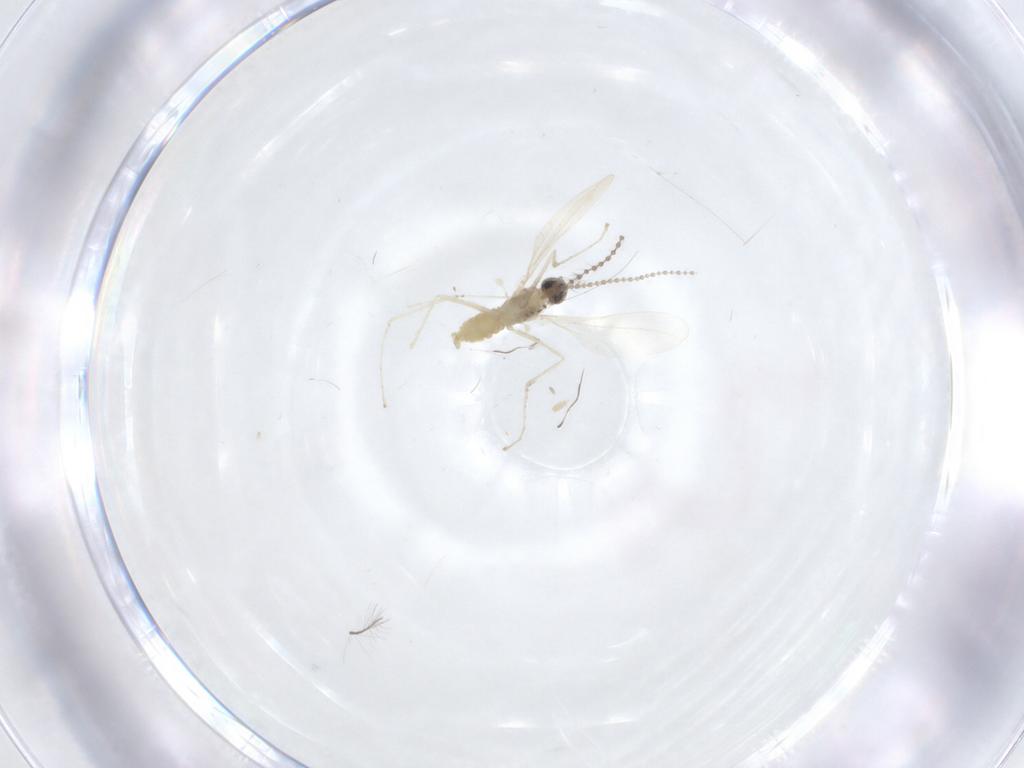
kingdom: Animalia
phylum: Arthropoda
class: Insecta
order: Diptera
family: Cecidomyiidae
